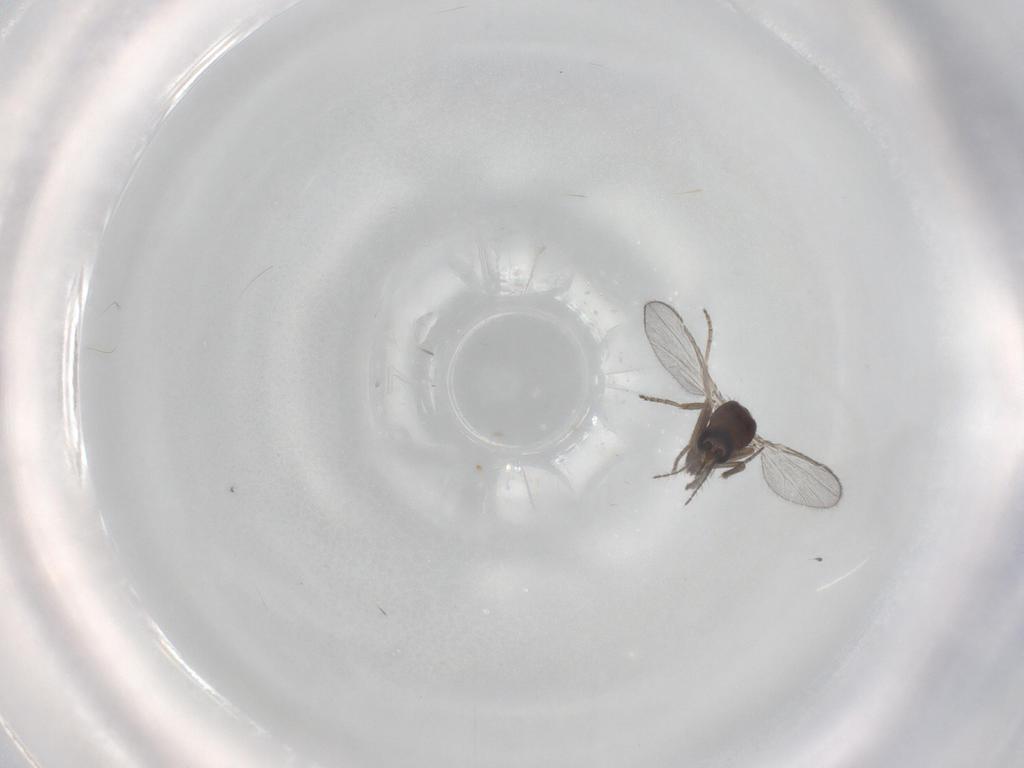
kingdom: Animalia
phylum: Arthropoda
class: Insecta
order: Diptera
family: Ceratopogonidae
